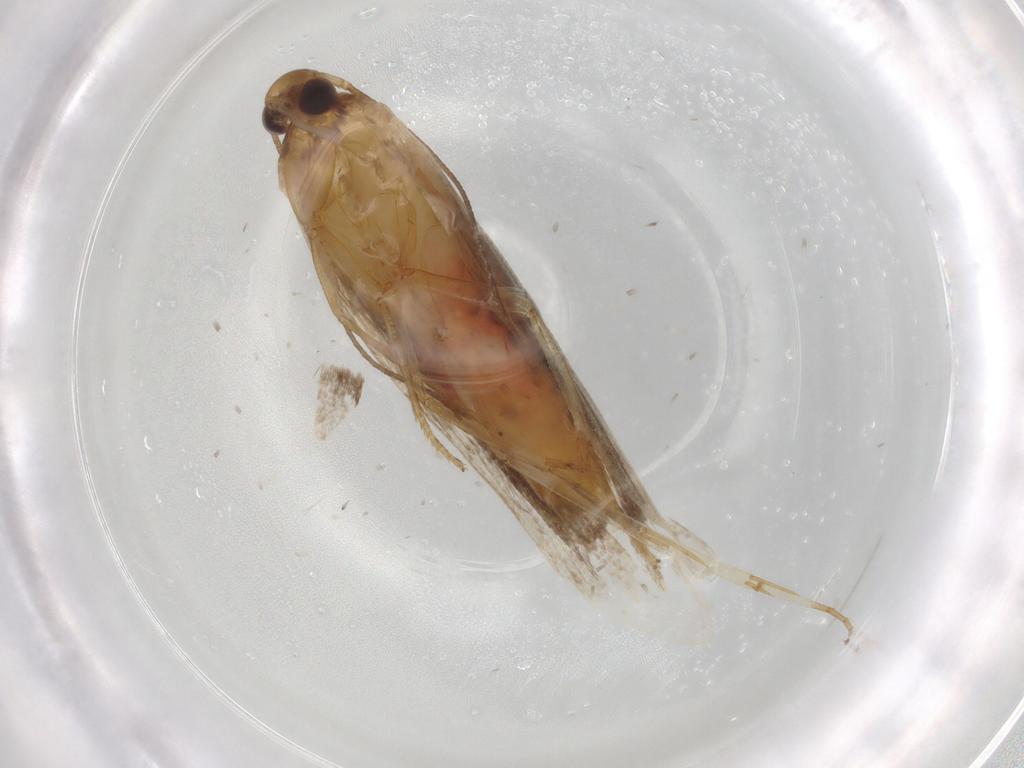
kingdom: Animalia
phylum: Arthropoda
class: Insecta
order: Lepidoptera
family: Gelechiidae
